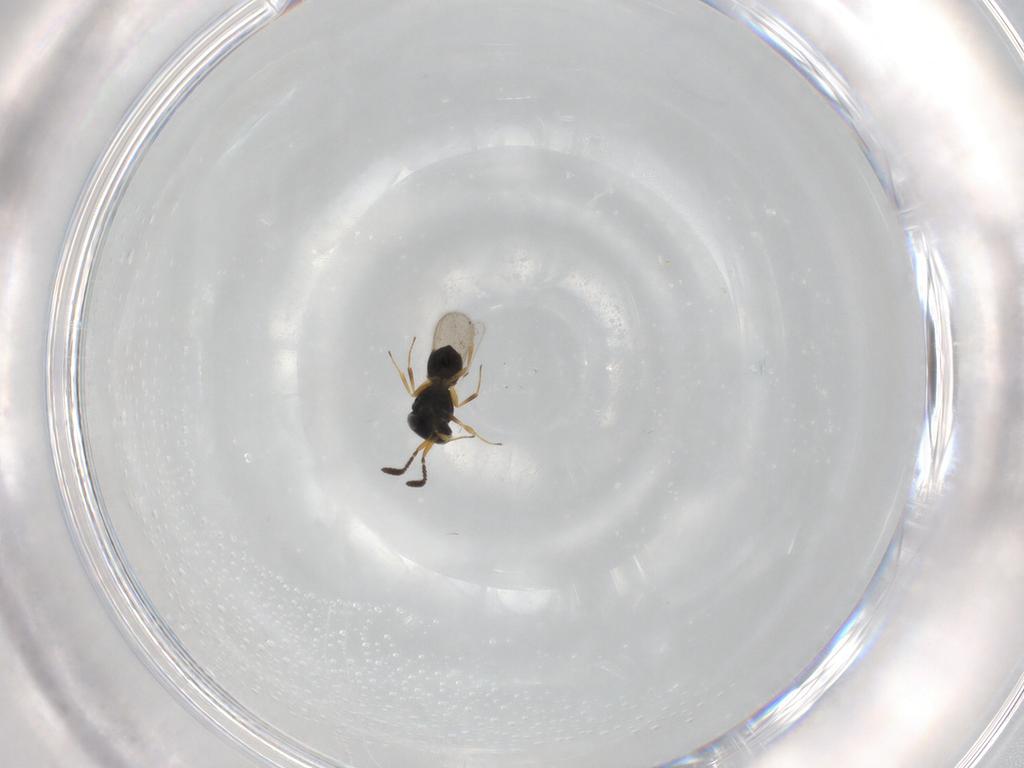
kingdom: Animalia
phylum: Arthropoda
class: Insecta
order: Hymenoptera
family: Scelionidae
